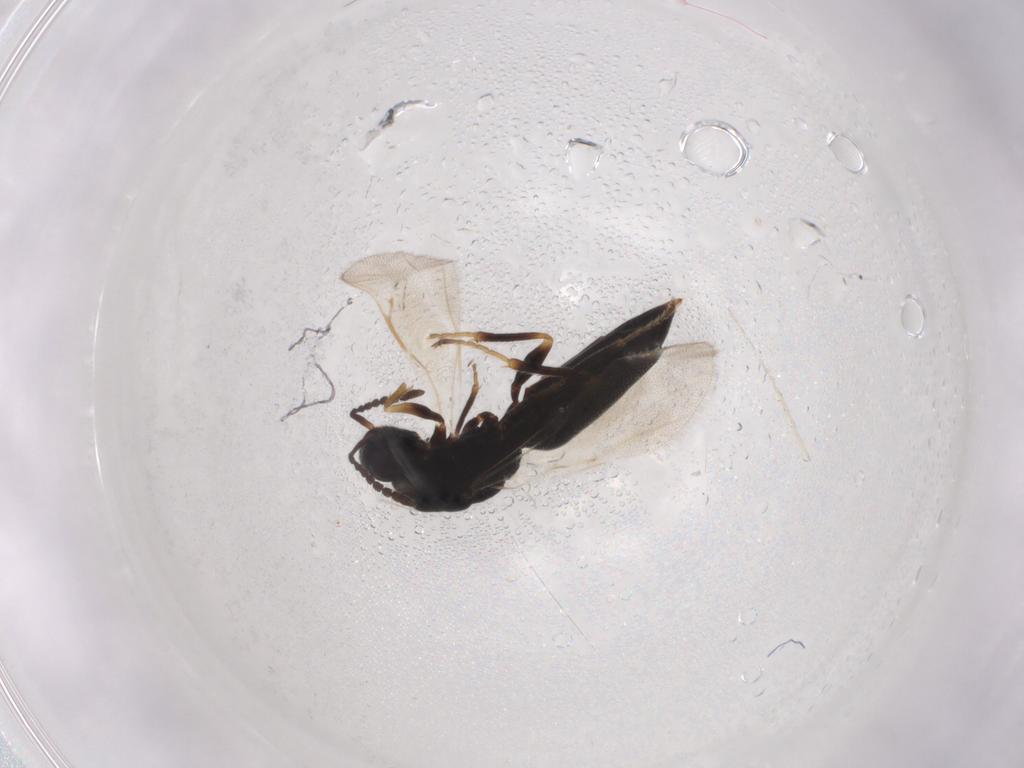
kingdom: Animalia
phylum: Arthropoda
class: Insecta
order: Hymenoptera
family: Eurytomidae
